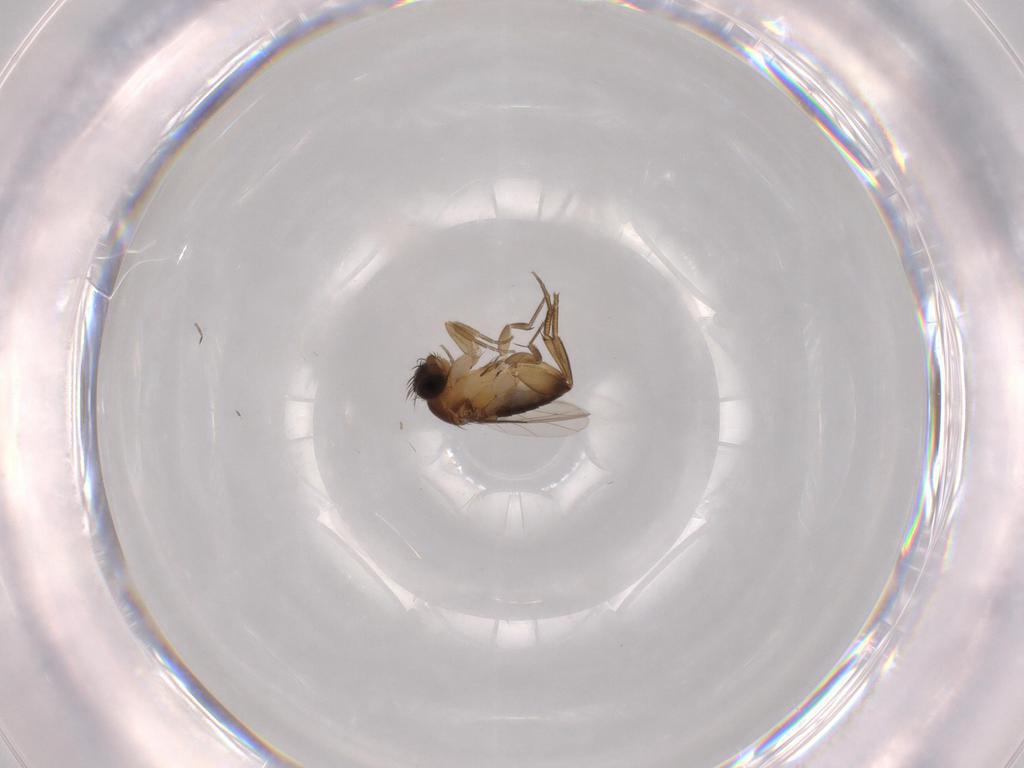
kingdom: Animalia
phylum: Arthropoda
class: Insecta
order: Diptera
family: Phoridae
